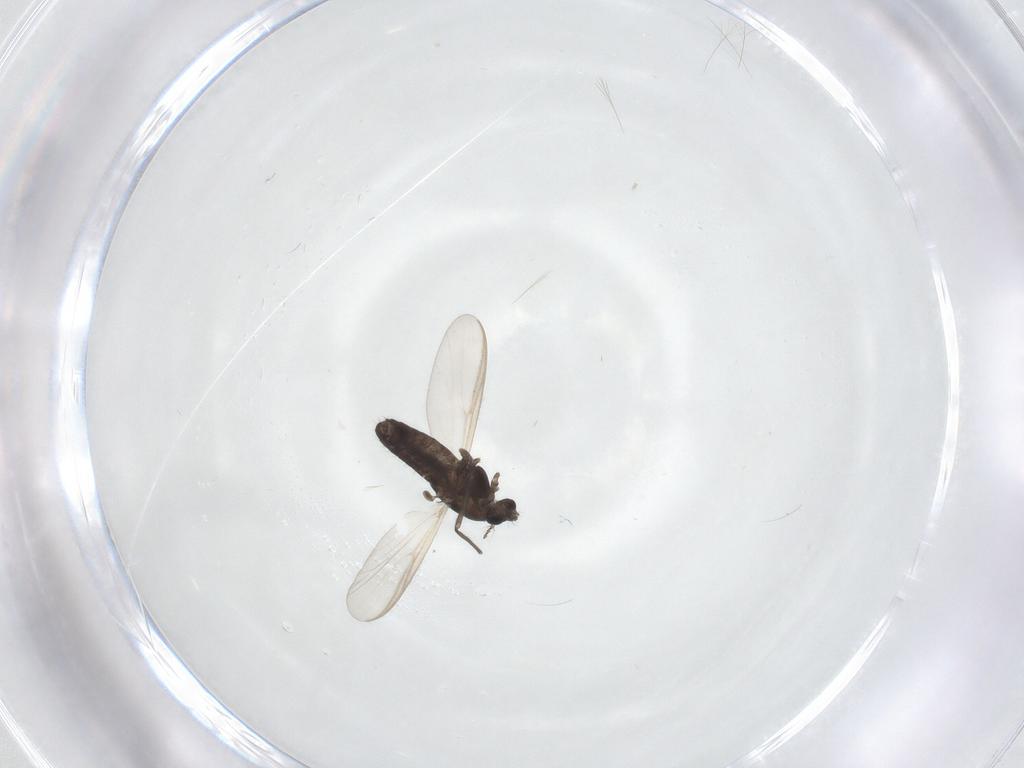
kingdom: Animalia
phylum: Arthropoda
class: Insecta
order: Diptera
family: Chironomidae
